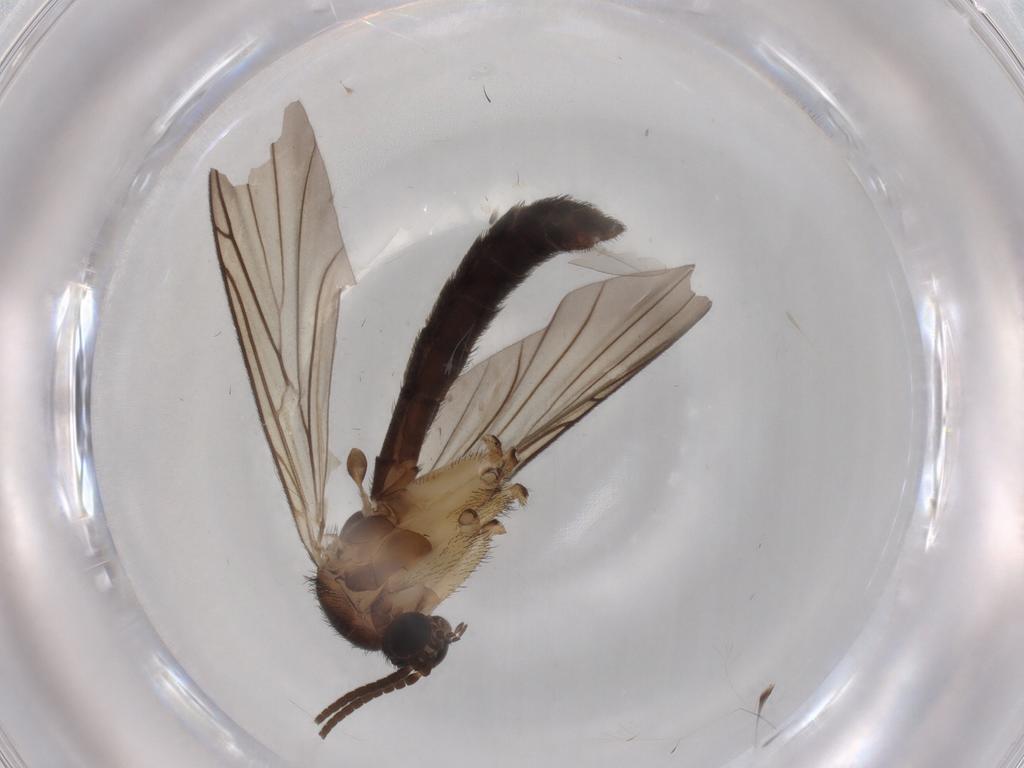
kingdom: Animalia
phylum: Arthropoda
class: Insecta
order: Diptera
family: Keroplatidae
